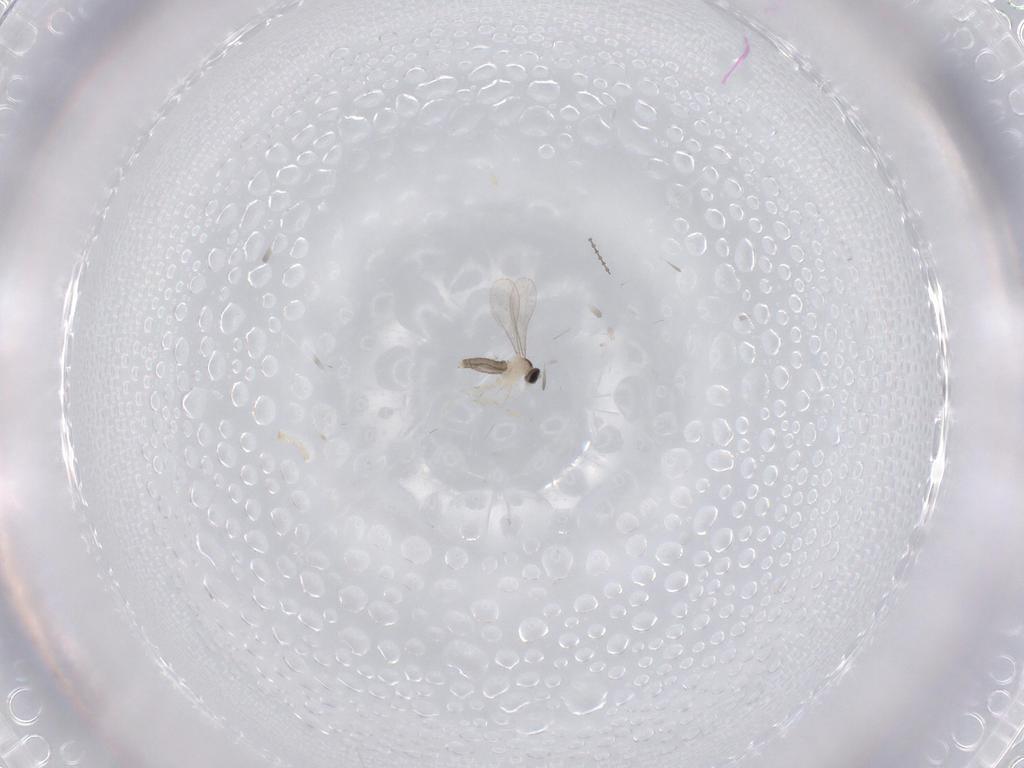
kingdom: Animalia
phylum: Arthropoda
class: Insecta
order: Diptera
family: Cecidomyiidae
